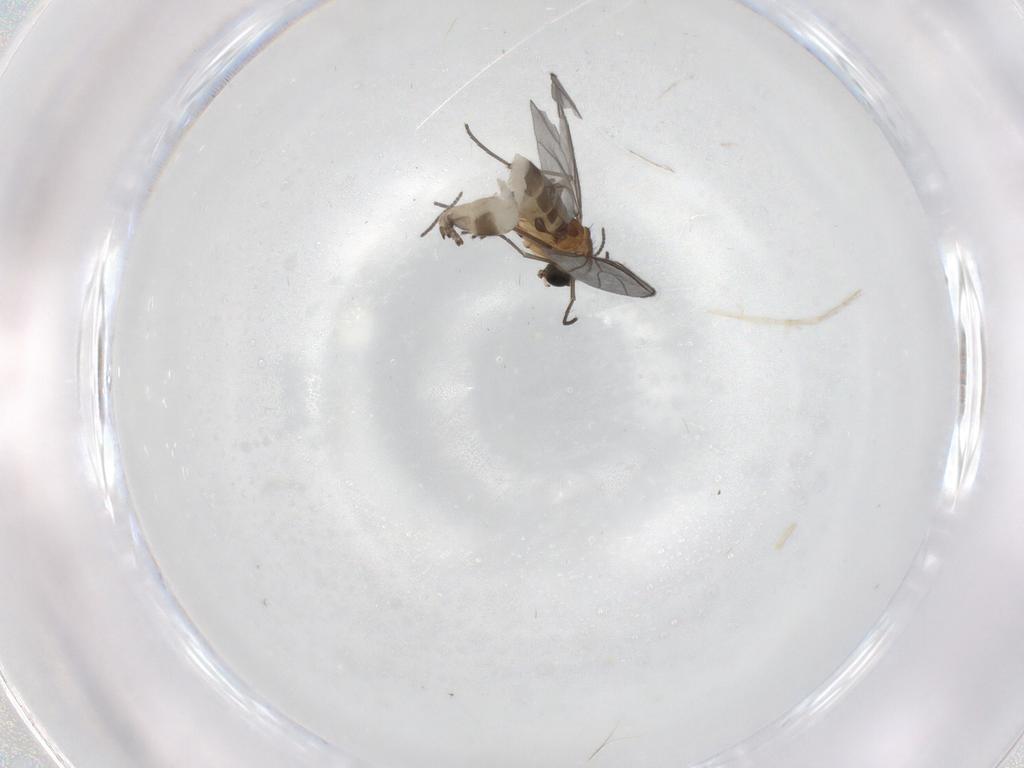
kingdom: Animalia
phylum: Arthropoda
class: Insecta
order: Diptera
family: Sciaridae
